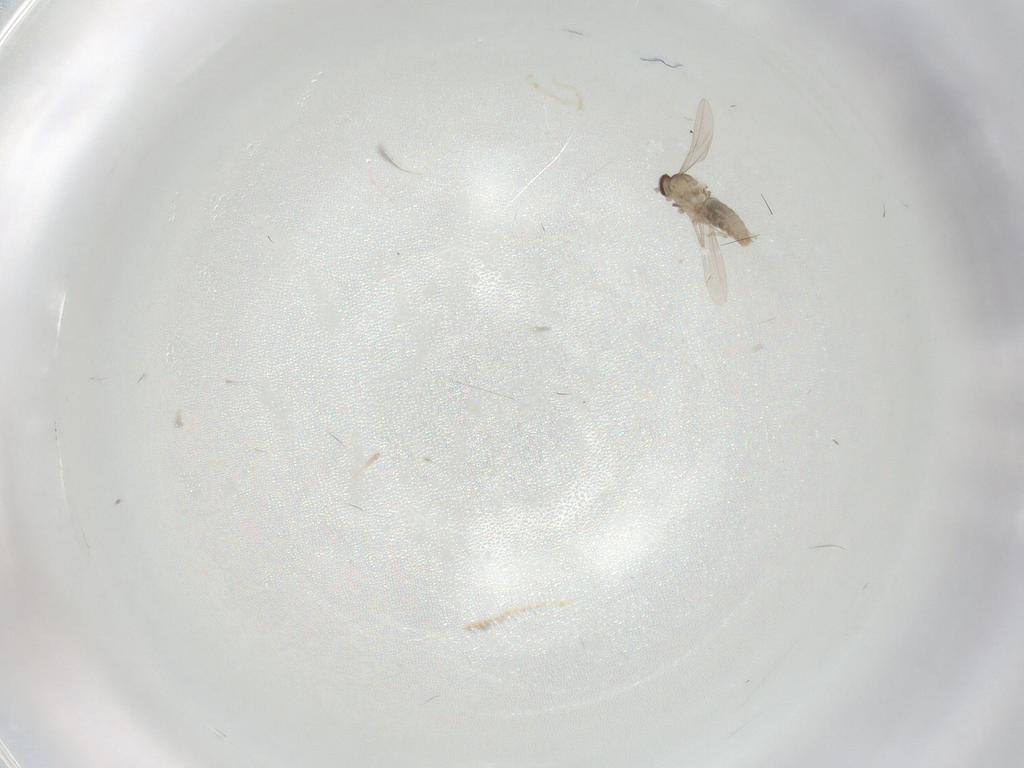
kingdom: Animalia
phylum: Arthropoda
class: Insecta
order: Diptera
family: Cecidomyiidae
